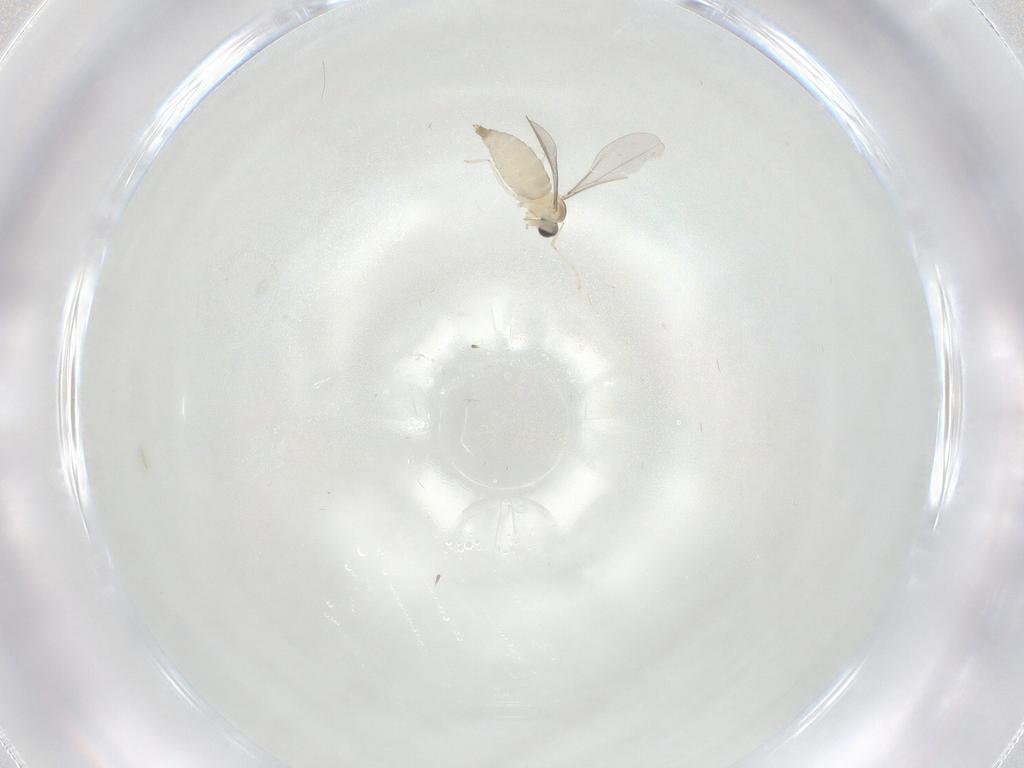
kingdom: Animalia
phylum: Arthropoda
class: Insecta
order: Diptera
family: Cecidomyiidae
